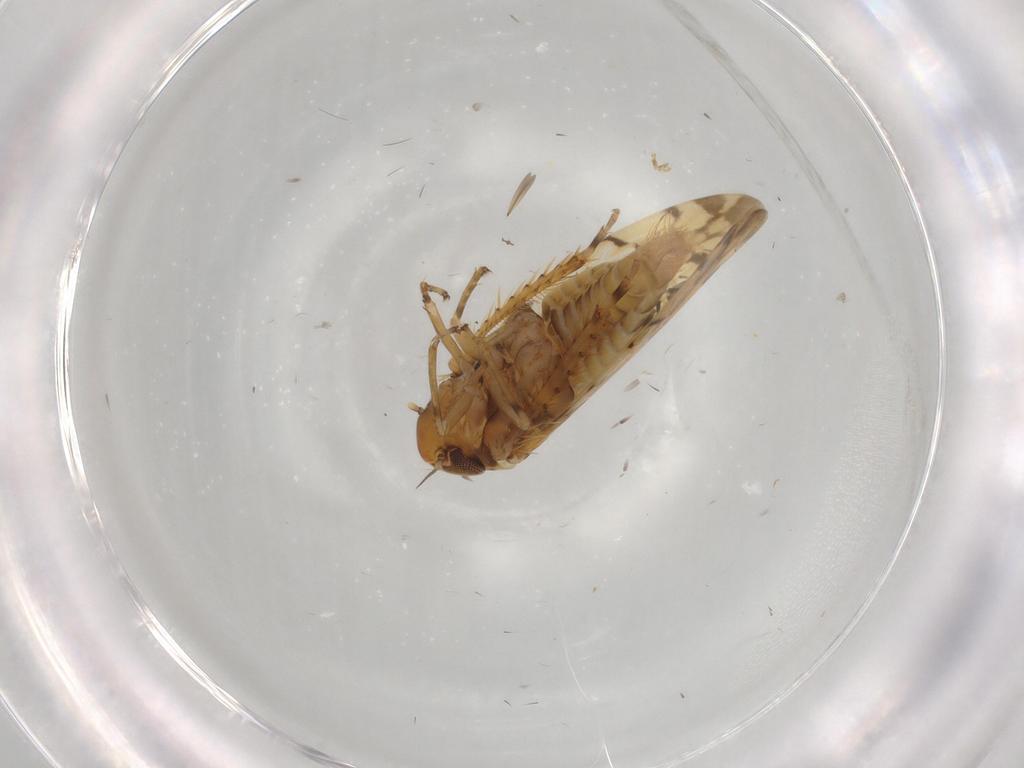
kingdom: Animalia
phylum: Arthropoda
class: Insecta
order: Hemiptera
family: Cicadellidae
